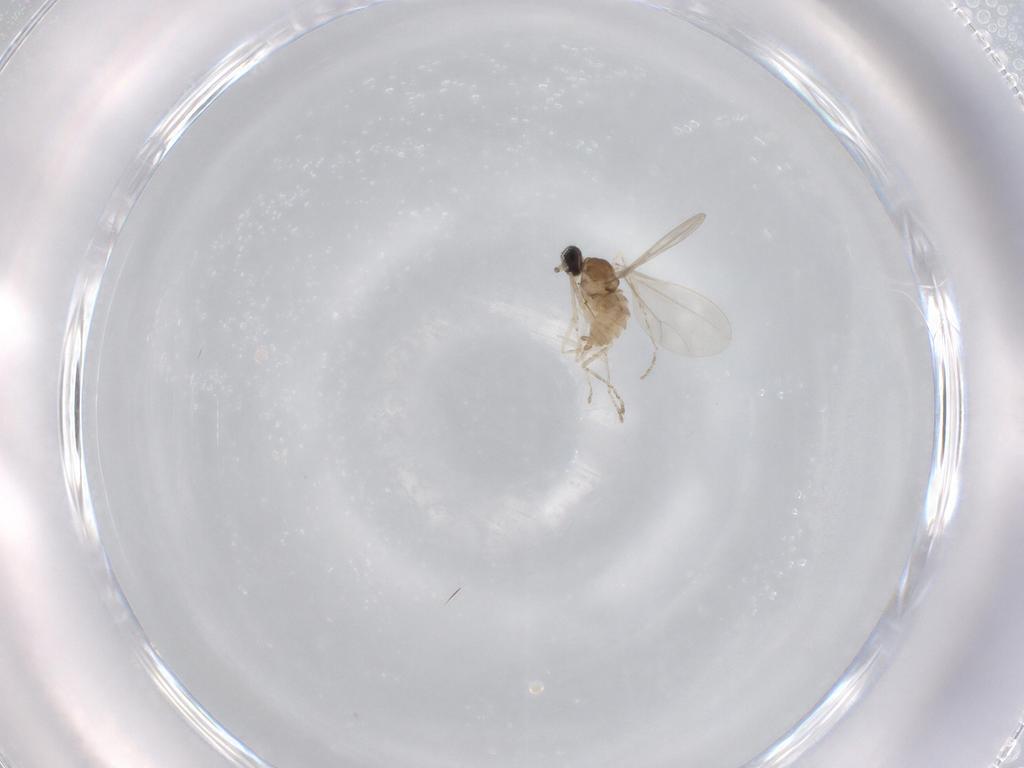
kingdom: Animalia
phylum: Arthropoda
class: Insecta
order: Diptera
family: Cecidomyiidae
